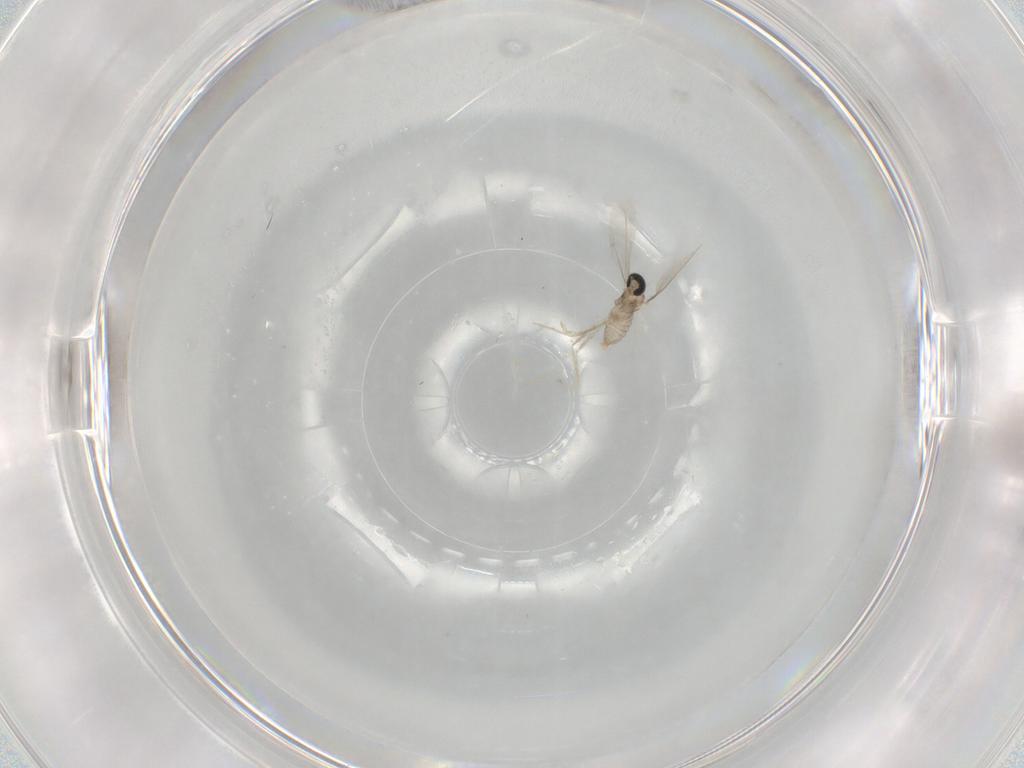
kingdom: Animalia
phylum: Arthropoda
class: Insecta
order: Diptera
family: Cecidomyiidae
